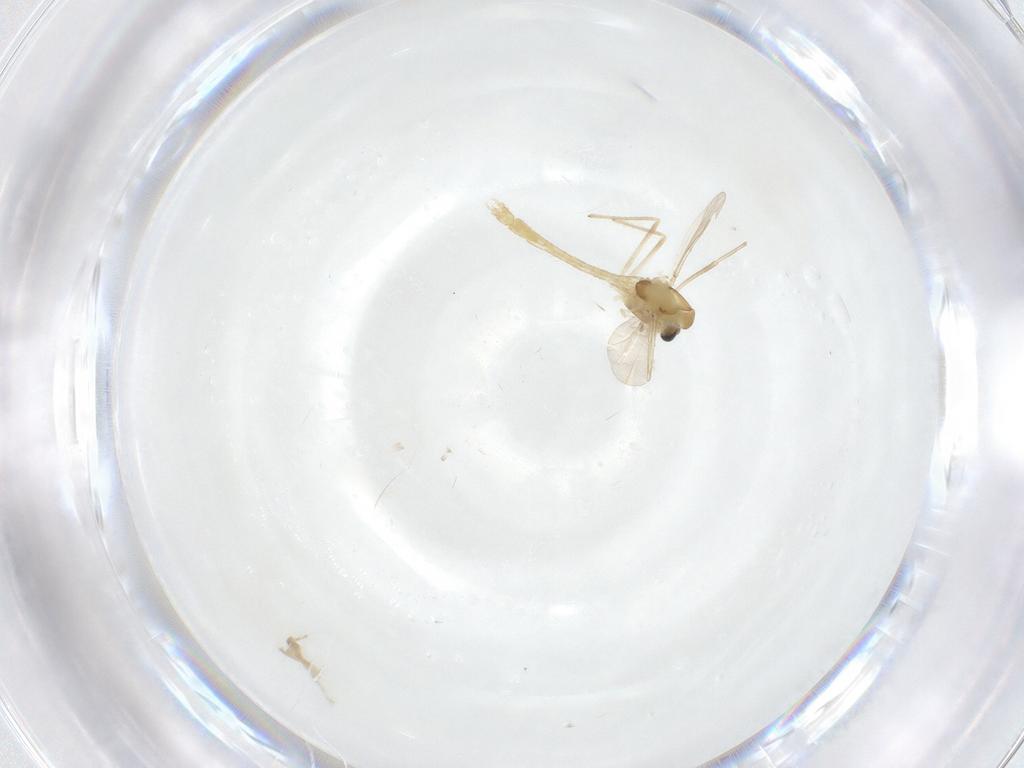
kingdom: Animalia
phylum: Arthropoda
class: Insecta
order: Diptera
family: Chironomidae
